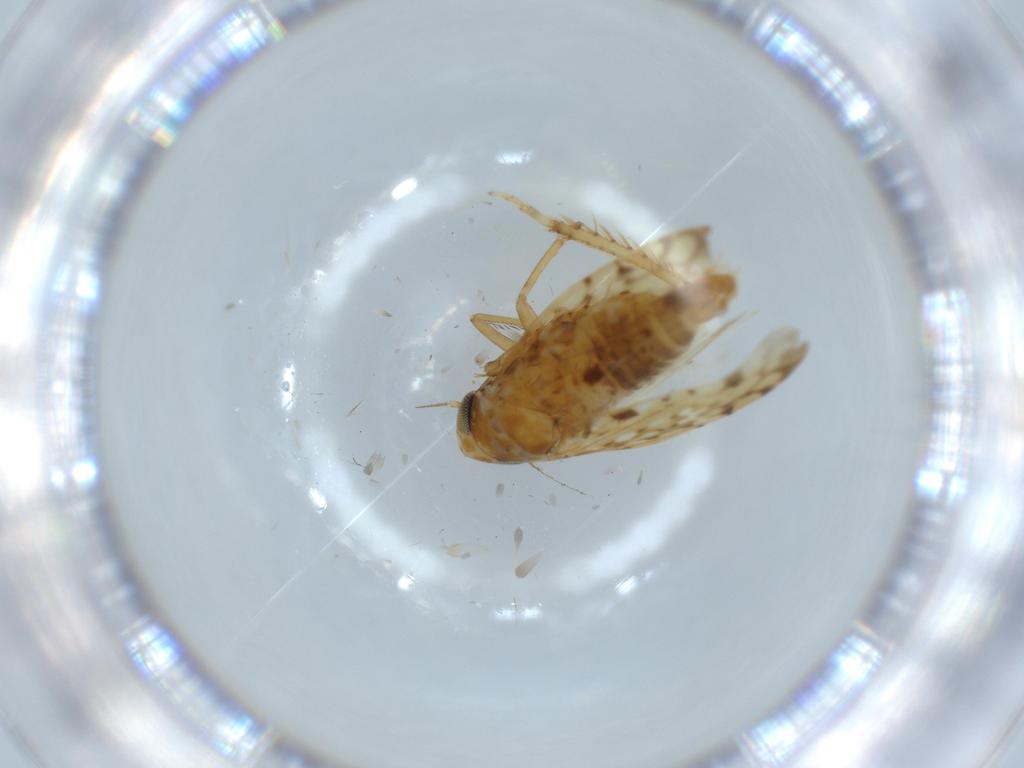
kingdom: Animalia
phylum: Arthropoda
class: Insecta
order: Hemiptera
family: Cicadellidae
